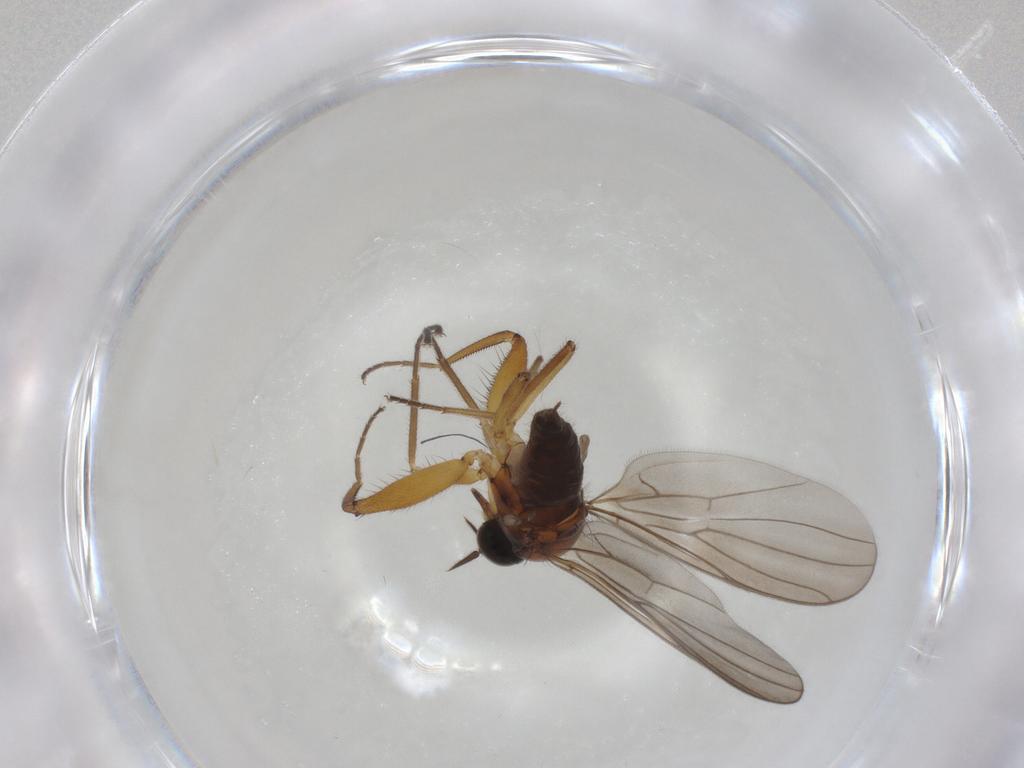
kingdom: Animalia
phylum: Arthropoda
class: Insecta
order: Diptera
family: Hybotidae
